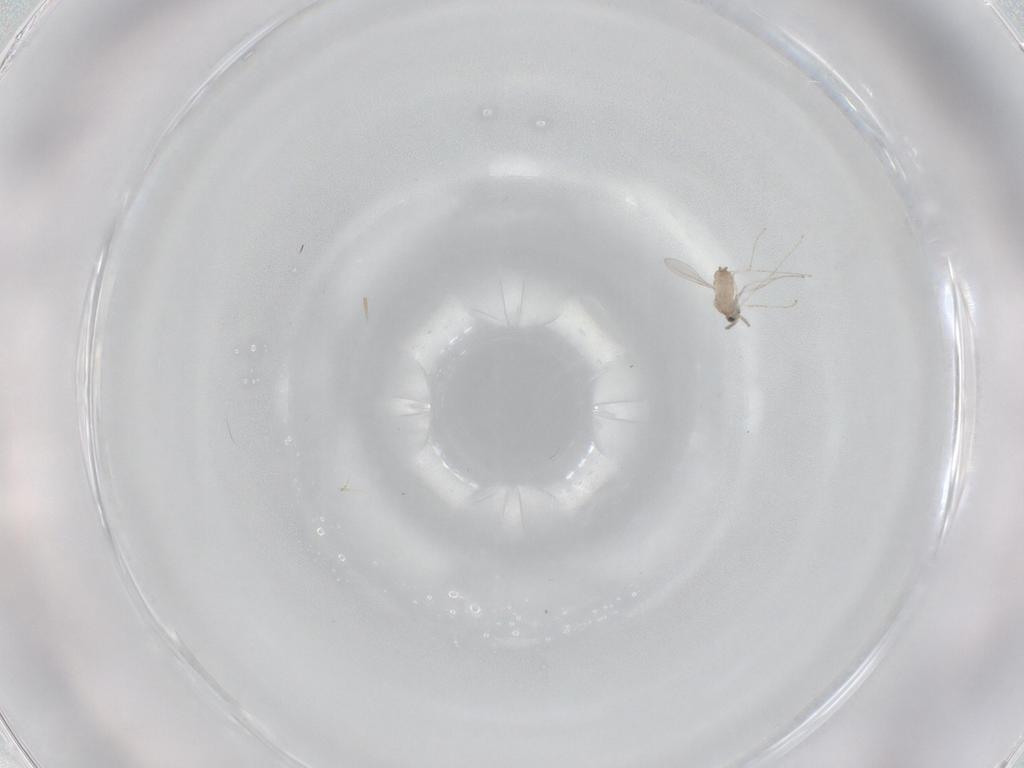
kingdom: Animalia
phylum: Arthropoda
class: Insecta
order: Diptera
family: Cecidomyiidae
